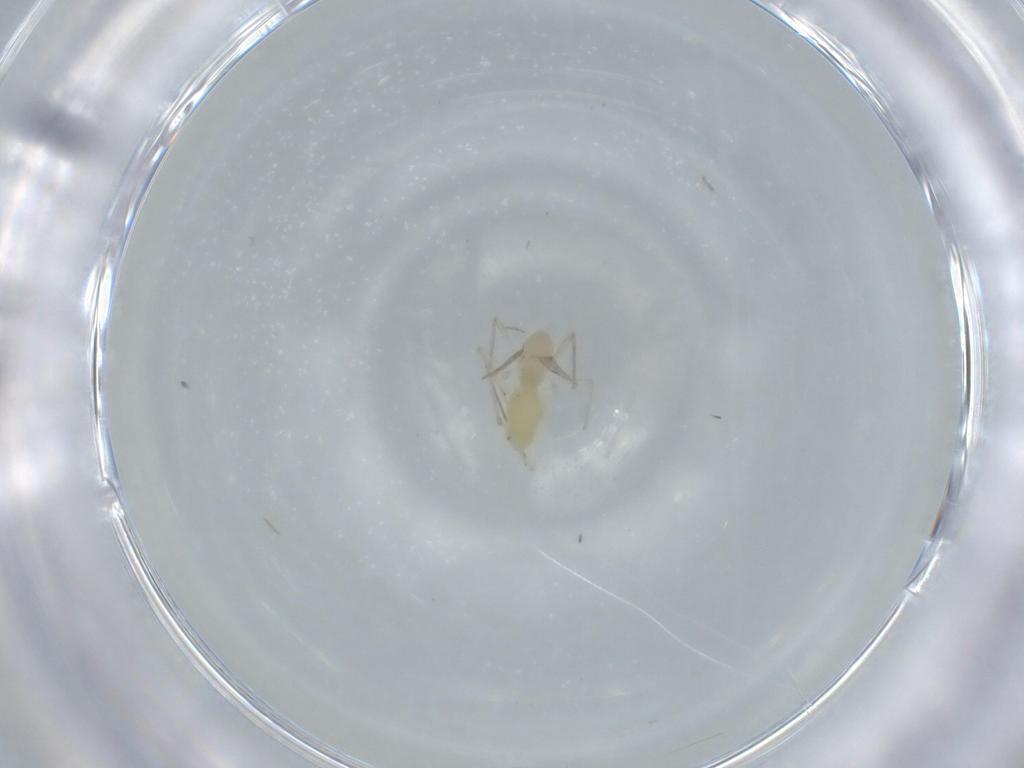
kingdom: Animalia
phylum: Arthropoda
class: Insecta
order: Diptera
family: Chironomidae
